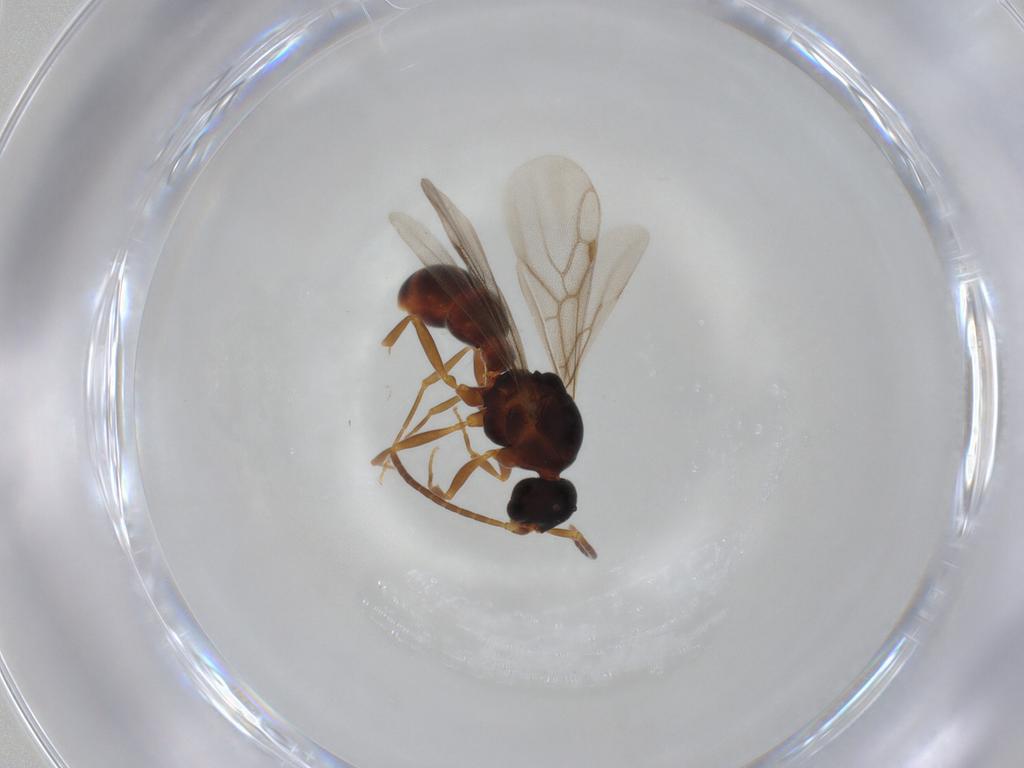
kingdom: Animalia
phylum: Arthropoda
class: Insecta
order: Hymenoptera
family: Formicidae
